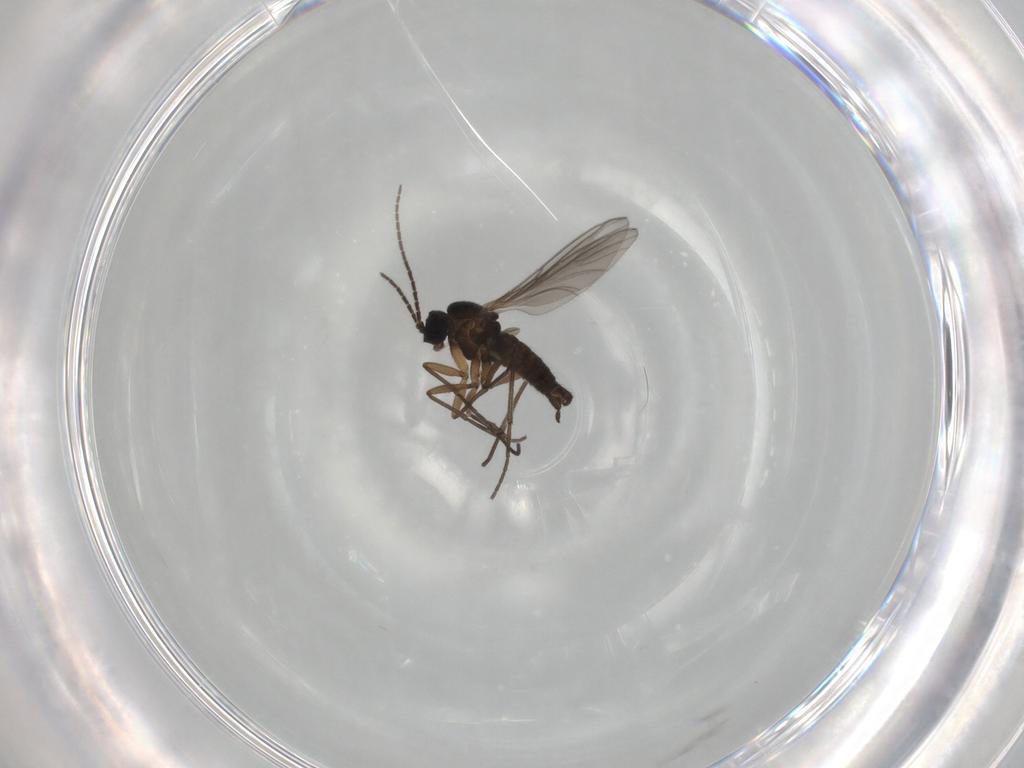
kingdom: Animalia
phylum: Arthropoda
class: Insecta
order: Diptera
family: Sciaridae
